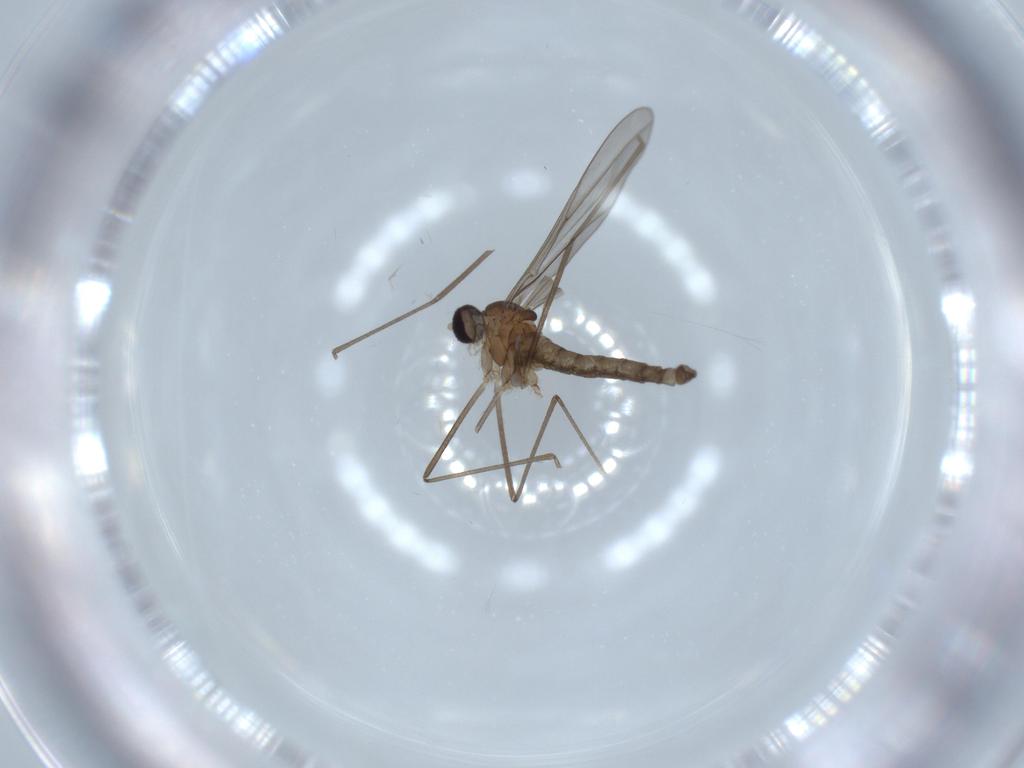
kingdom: Animalia
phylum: Arthropoda
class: Insecta
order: Diptera
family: Cecidomyiidae
